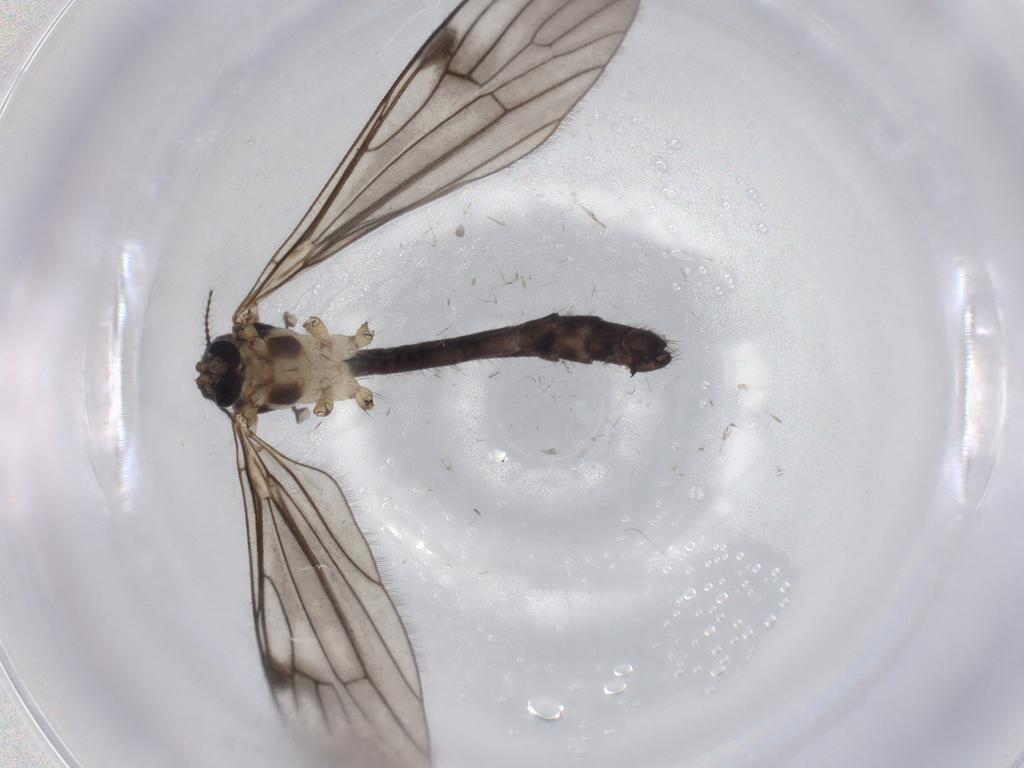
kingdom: Animalia
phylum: Arthropoda
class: Insecta
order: Diptera
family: Limoniidae
